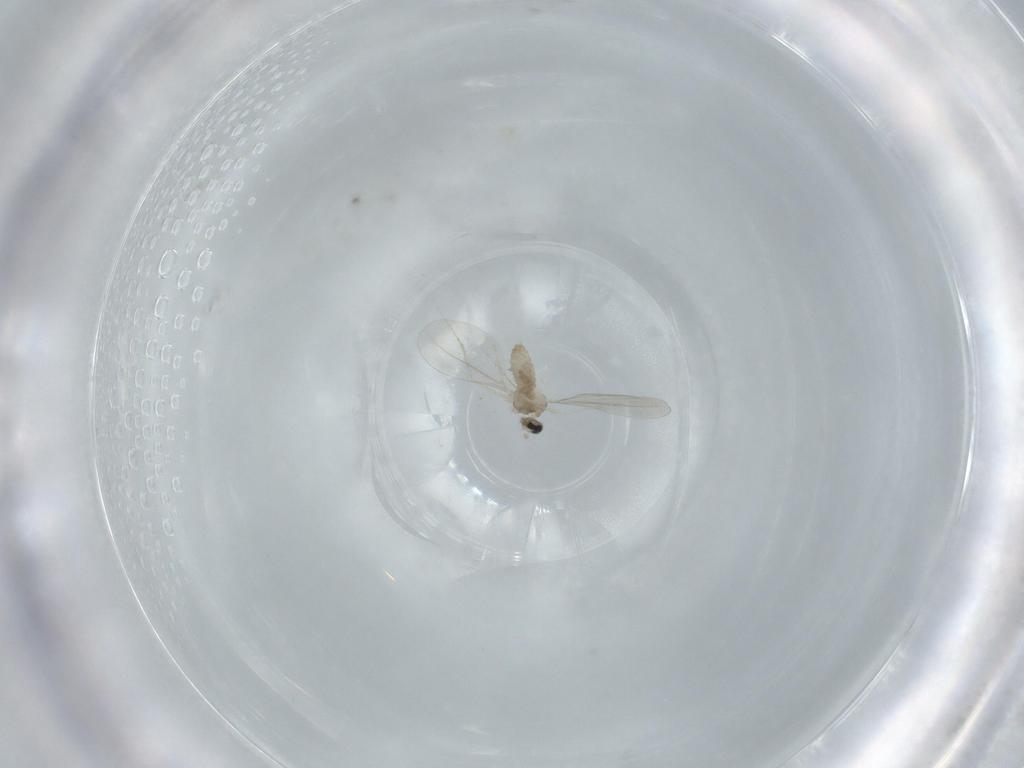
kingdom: Animalia
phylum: Arthropoda
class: Insecta
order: Diptera
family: Cecidomyiidae
